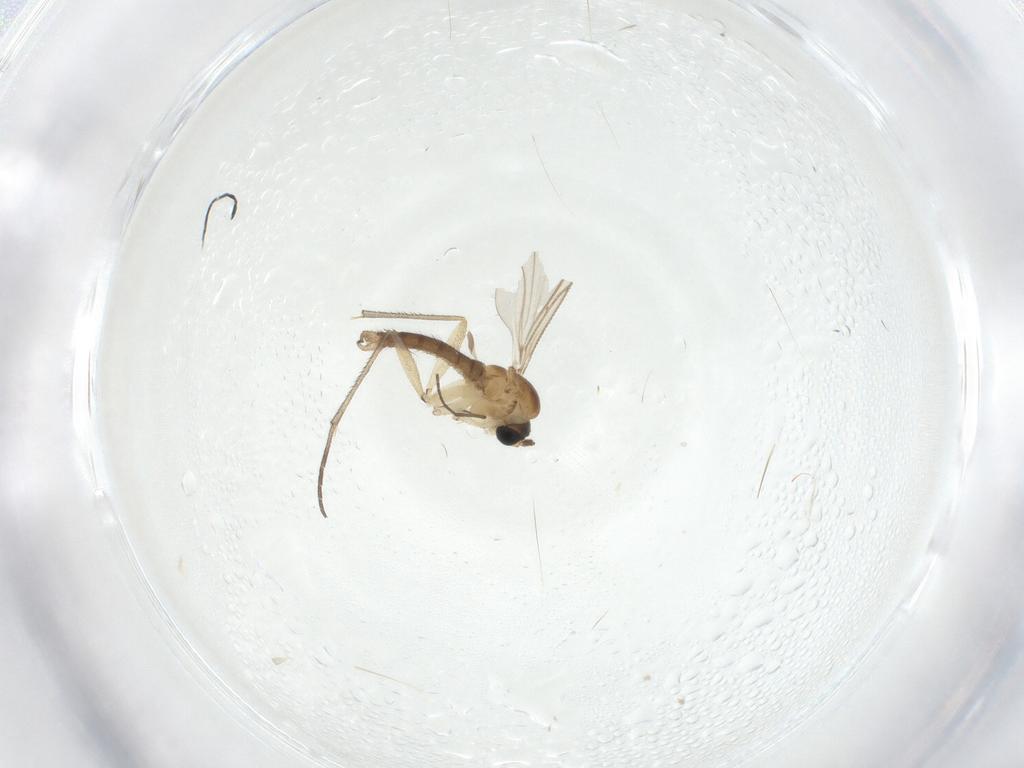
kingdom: Animalia
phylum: Arthropoda
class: Insecta
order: Diptera
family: Sciaridae
